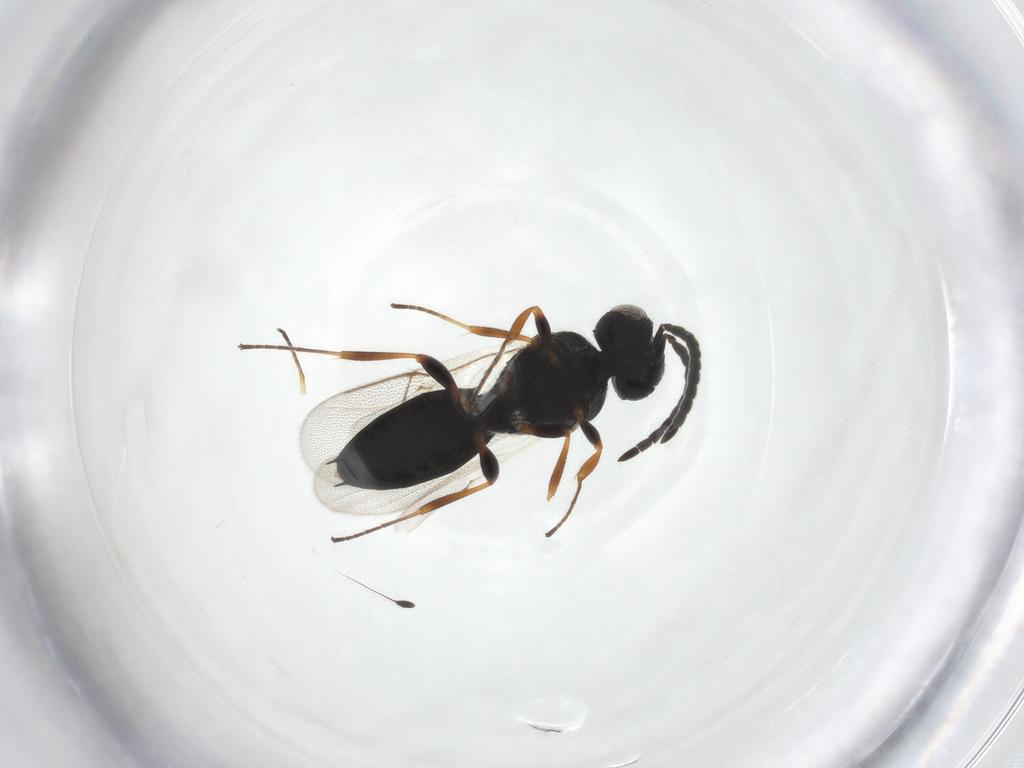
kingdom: Animalia
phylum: Arthropoda
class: Insecta
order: Hymenoptera
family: Scelionidae
